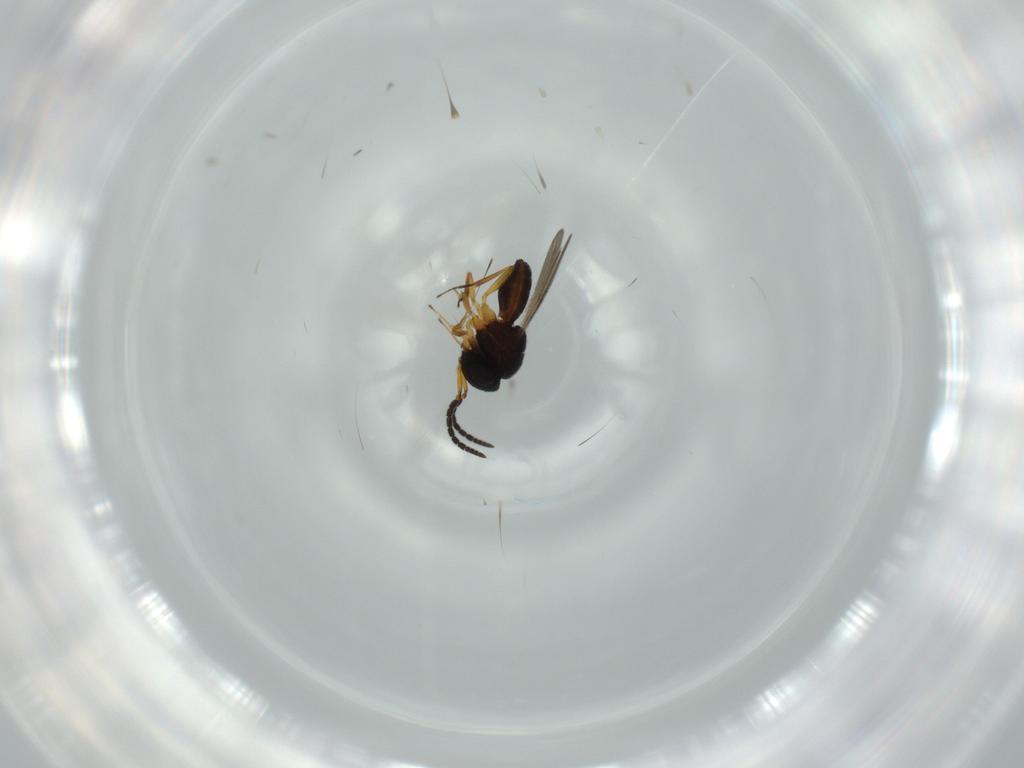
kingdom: Animalia
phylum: Arthropoda
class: Insecta
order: Coleoptera
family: Curculionidae
